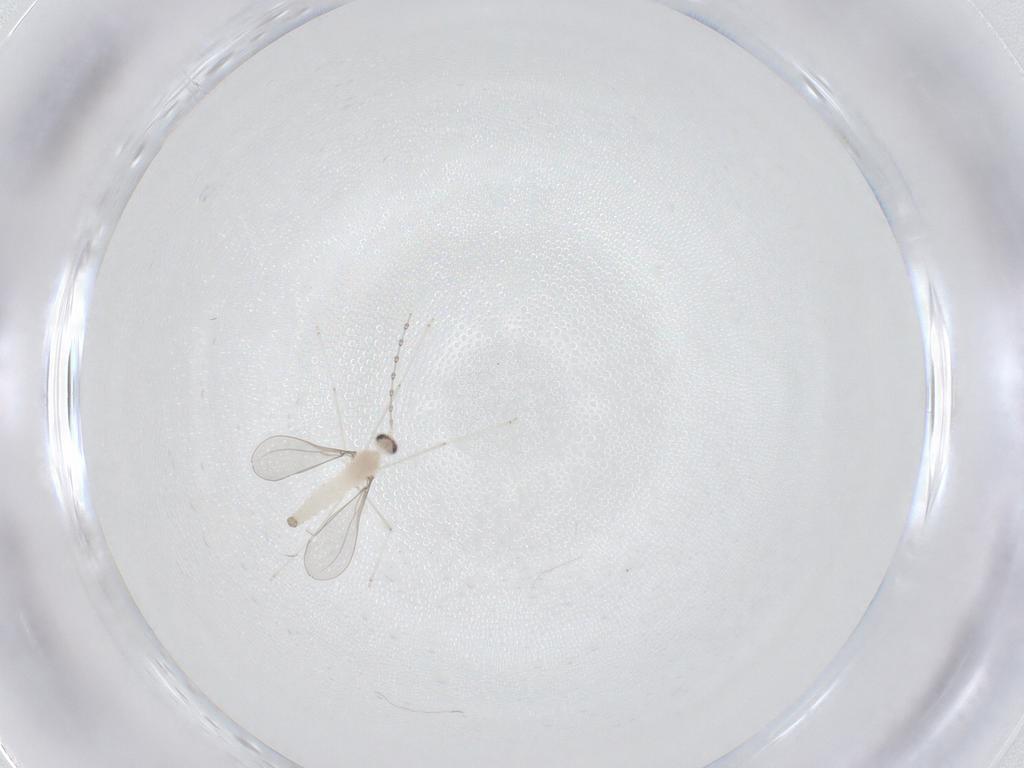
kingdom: Animalia
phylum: Arthropoda
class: Insecta
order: Diptera
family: Cecidomyiidae
